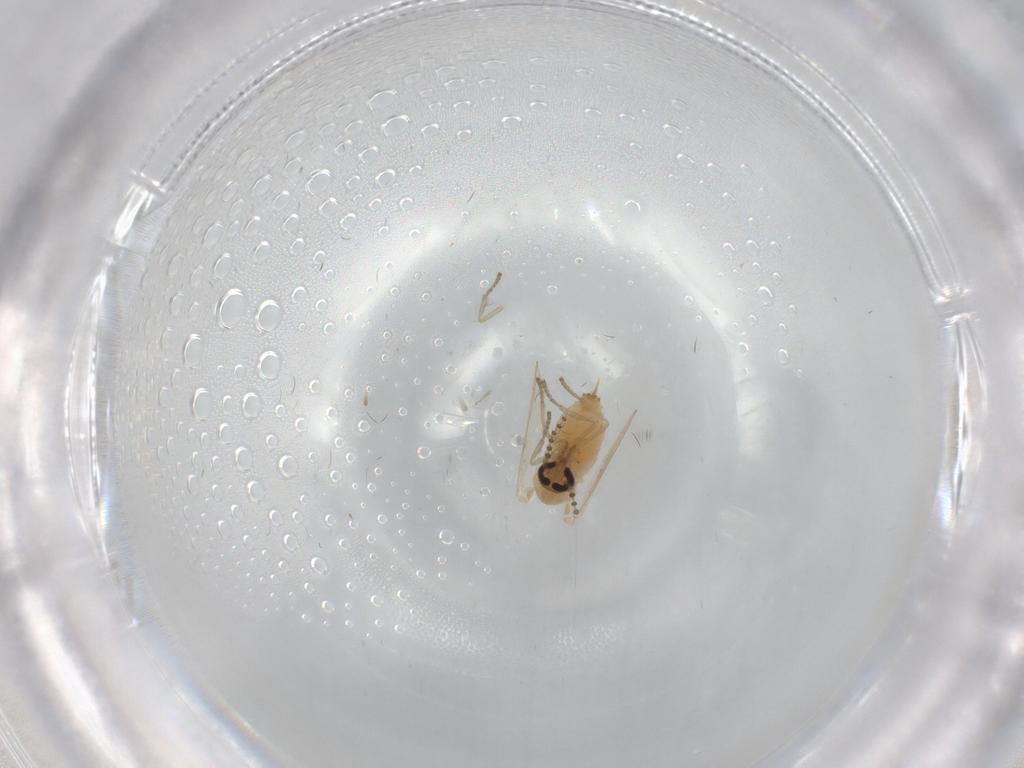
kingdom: Animalia
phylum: Arthropoda
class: Insecta
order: Diptera
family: Psychodidae
